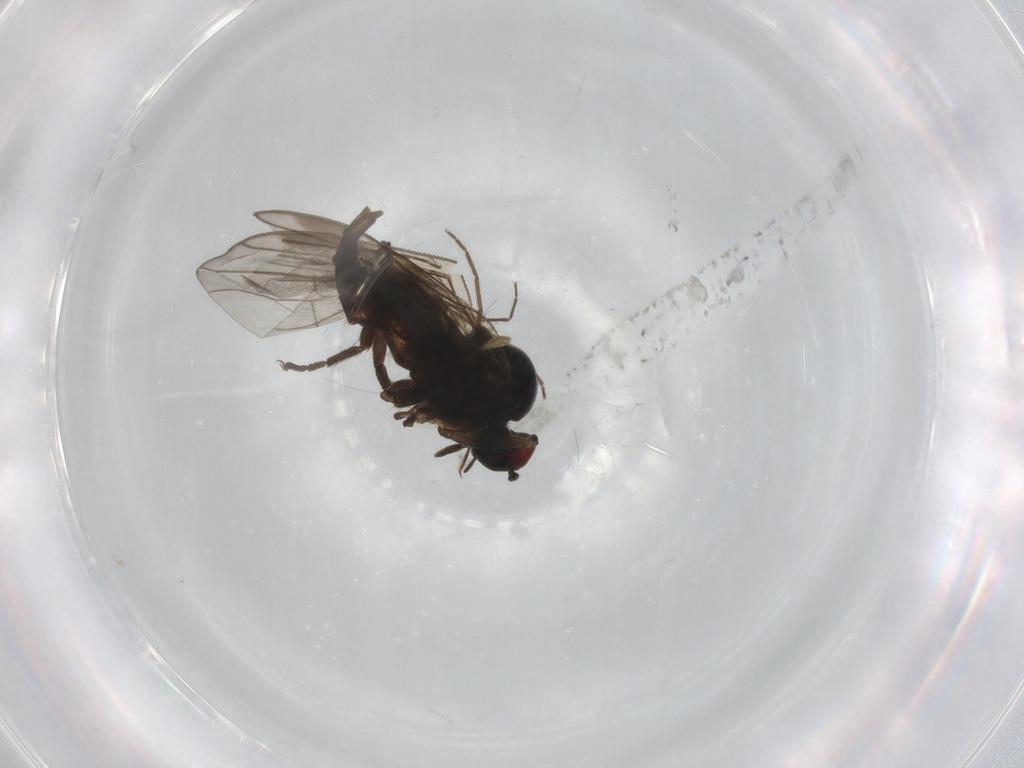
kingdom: Animalia
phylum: Arthropoda
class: Insecta
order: Diptera
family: Hybotidae
